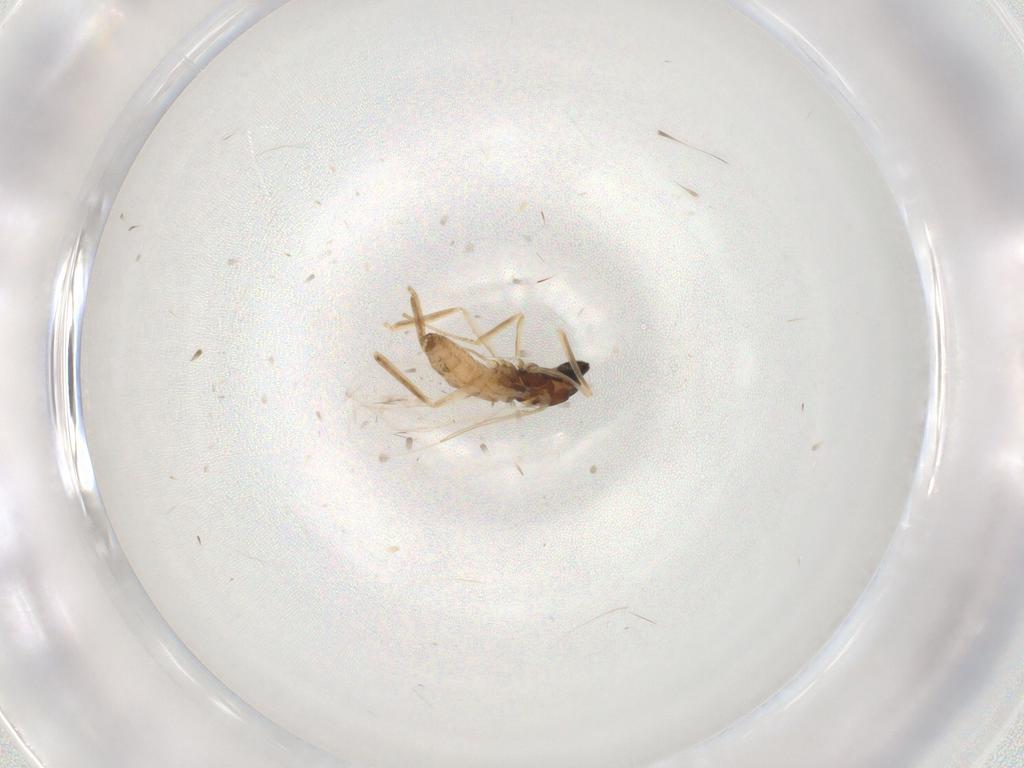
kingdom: Animalia
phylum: Arthropoda
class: Insecta
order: Diptera
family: Cecidomyiidae
